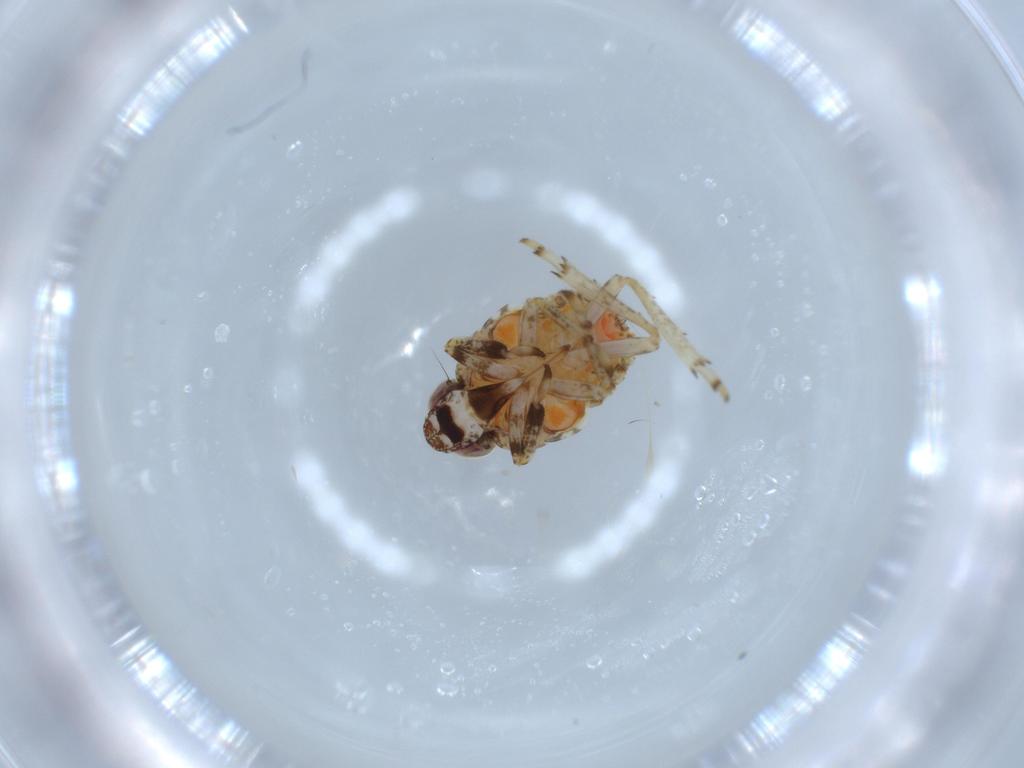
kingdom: Animalia
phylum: Arthropoda
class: Insecta
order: Hemiptera
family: Issidae
